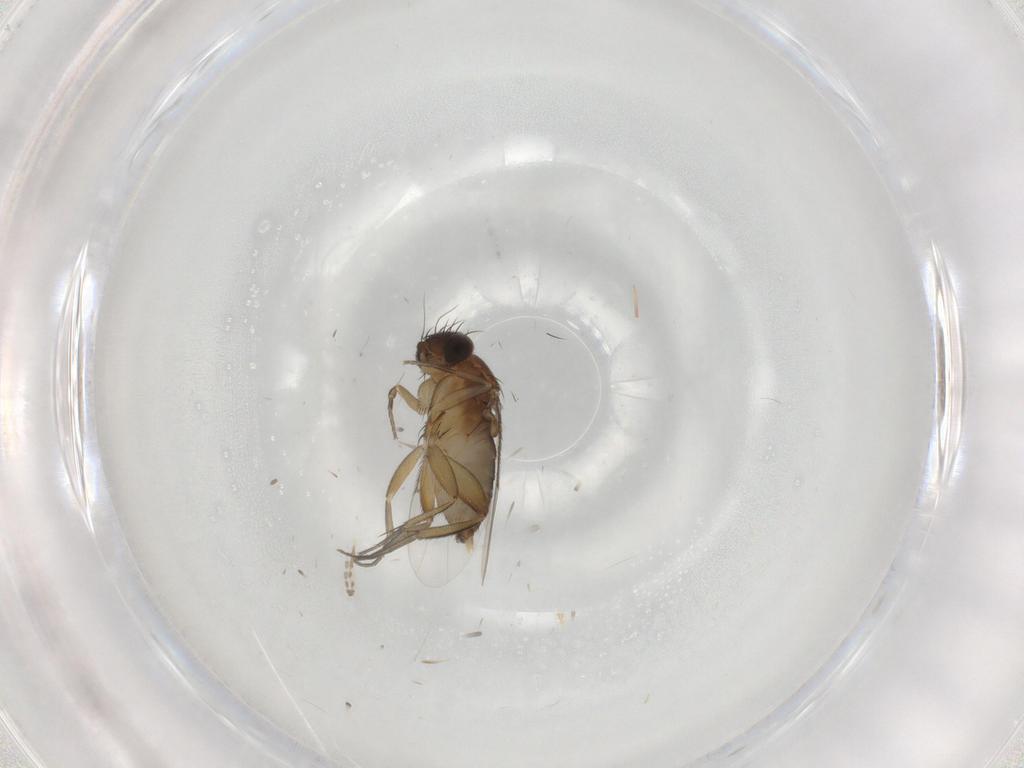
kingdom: Animalia
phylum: Arthropoda
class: Insecta
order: Diptera
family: Phoridae
